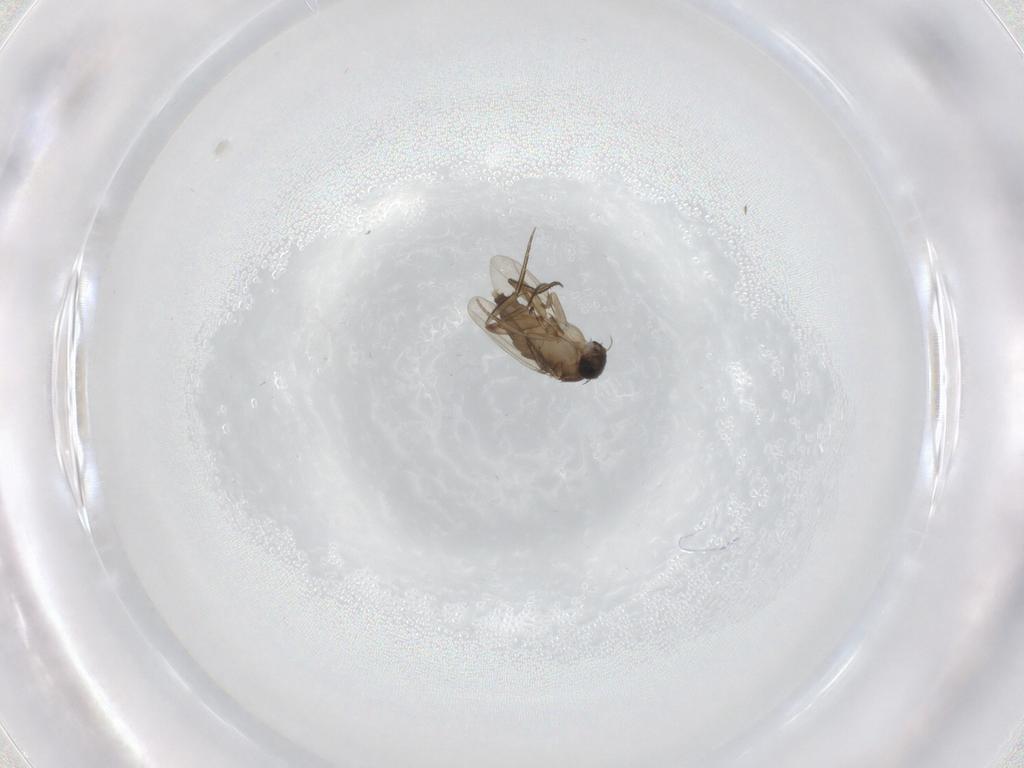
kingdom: Animalia
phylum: Arthropoda
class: Insecta
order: Diptera
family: Phoridae
